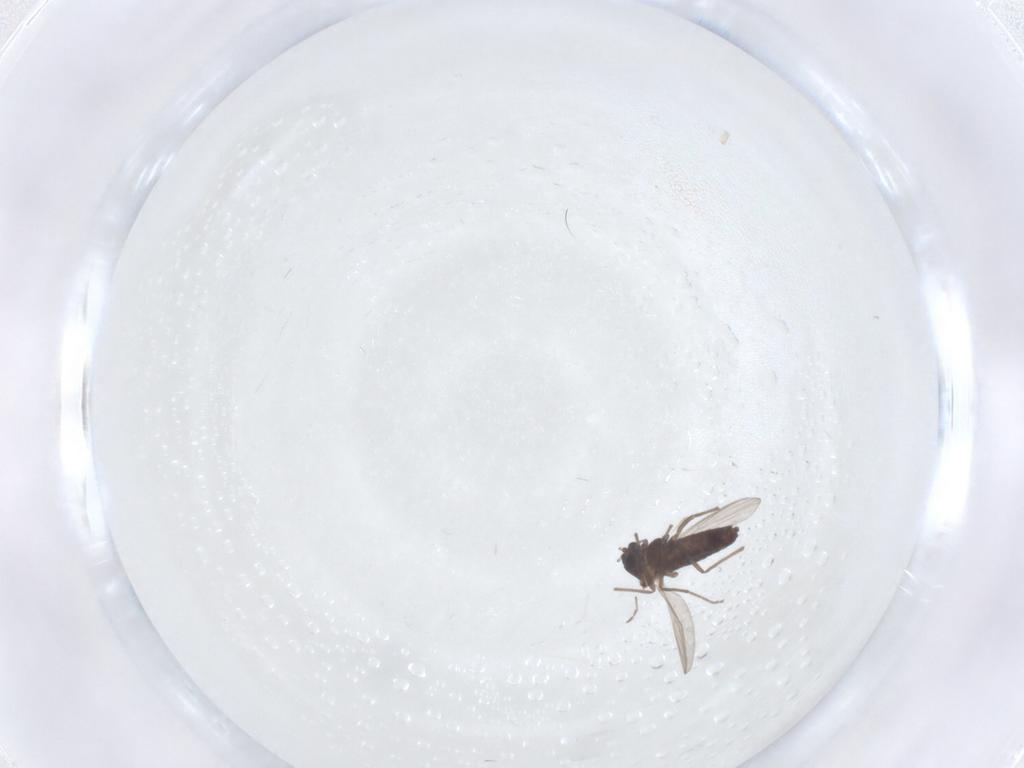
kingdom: Animalia
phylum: Arthropoda
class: Insecta
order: Diptera
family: Chironomidae
